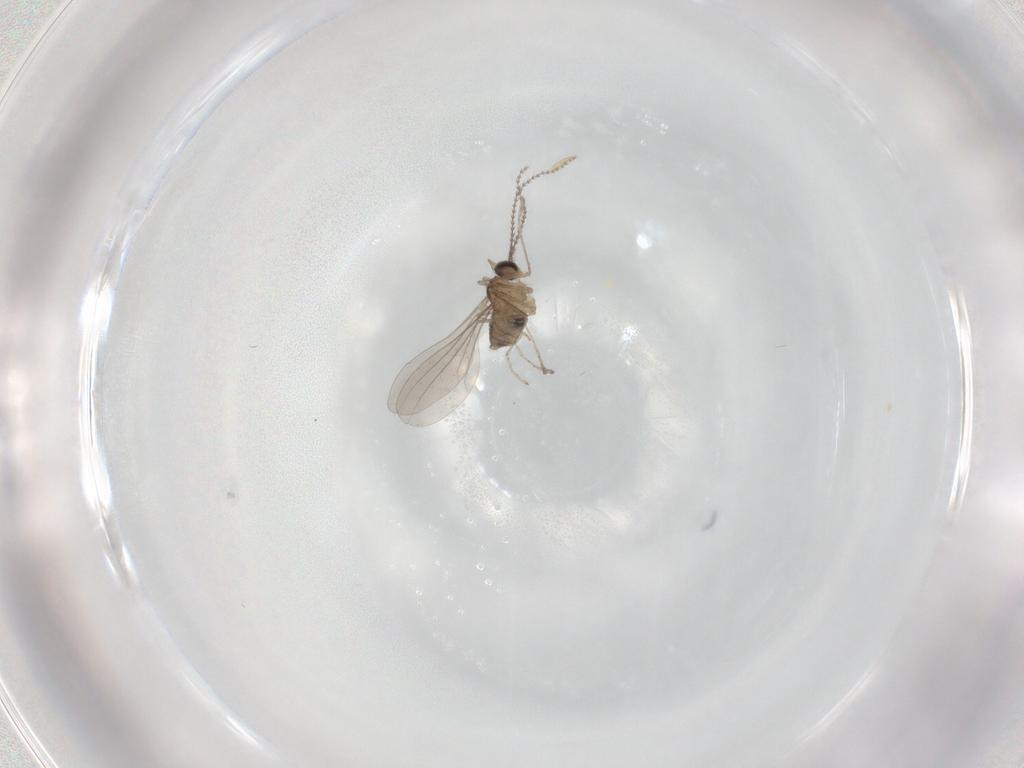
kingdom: Animalia
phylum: Arthropoda
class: Insecta
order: Diptera
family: Cecidomyiidae
